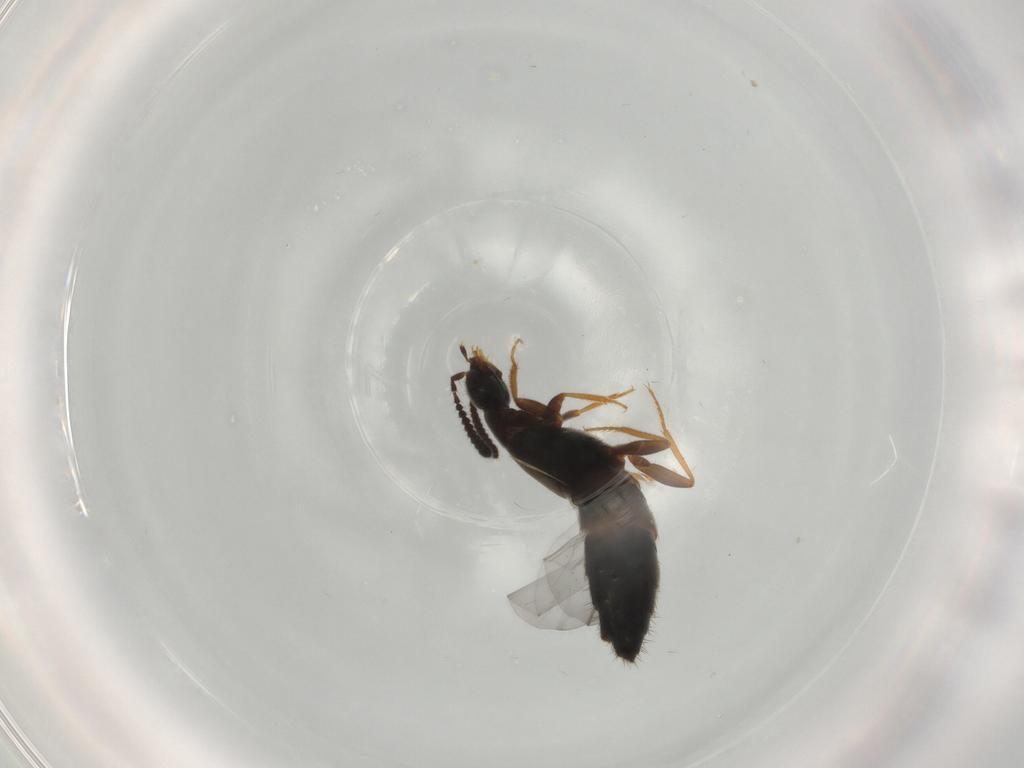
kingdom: Animalia
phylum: Arthropoda
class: Insecta
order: Coleoptera
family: Staphylinidae
